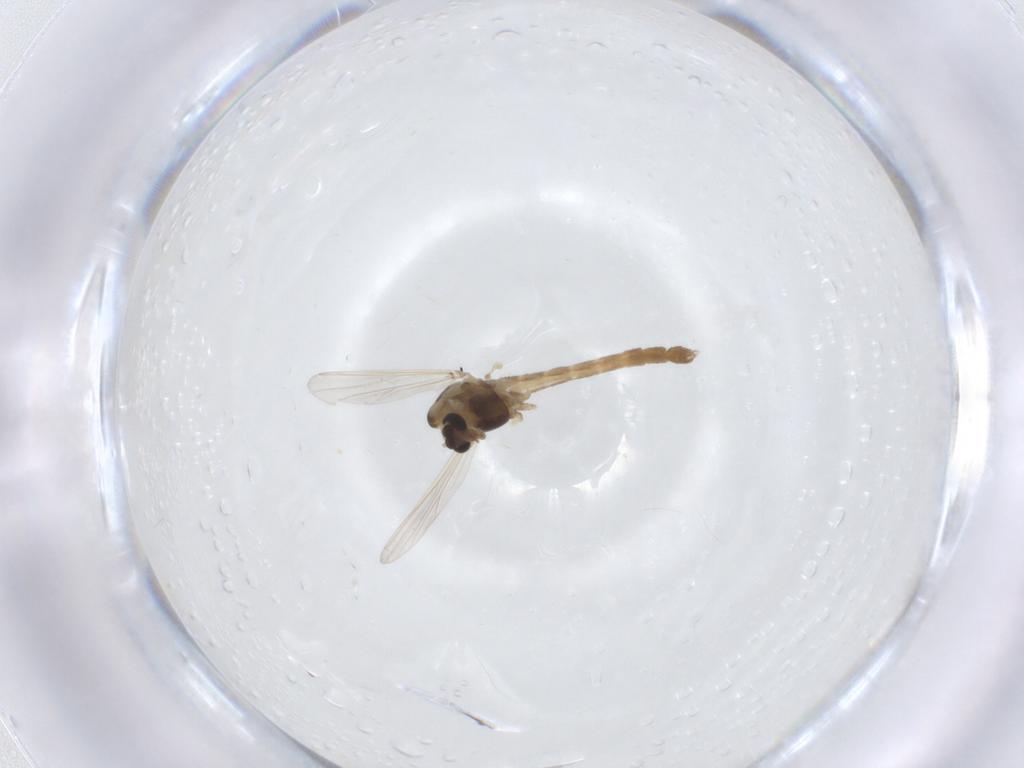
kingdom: Animalia
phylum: Arthropoda
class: Insecta
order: Diptera
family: Chironomidae
